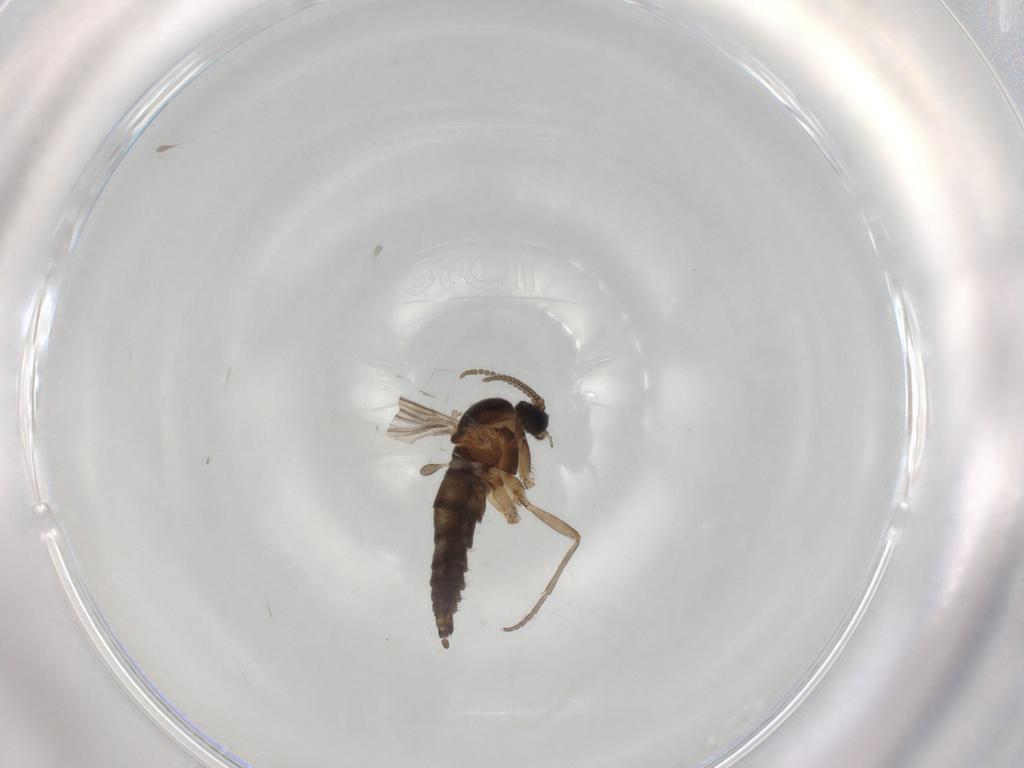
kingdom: Animalia
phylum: Arthropoda
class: Insecta
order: Diptera
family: Sciaridae
